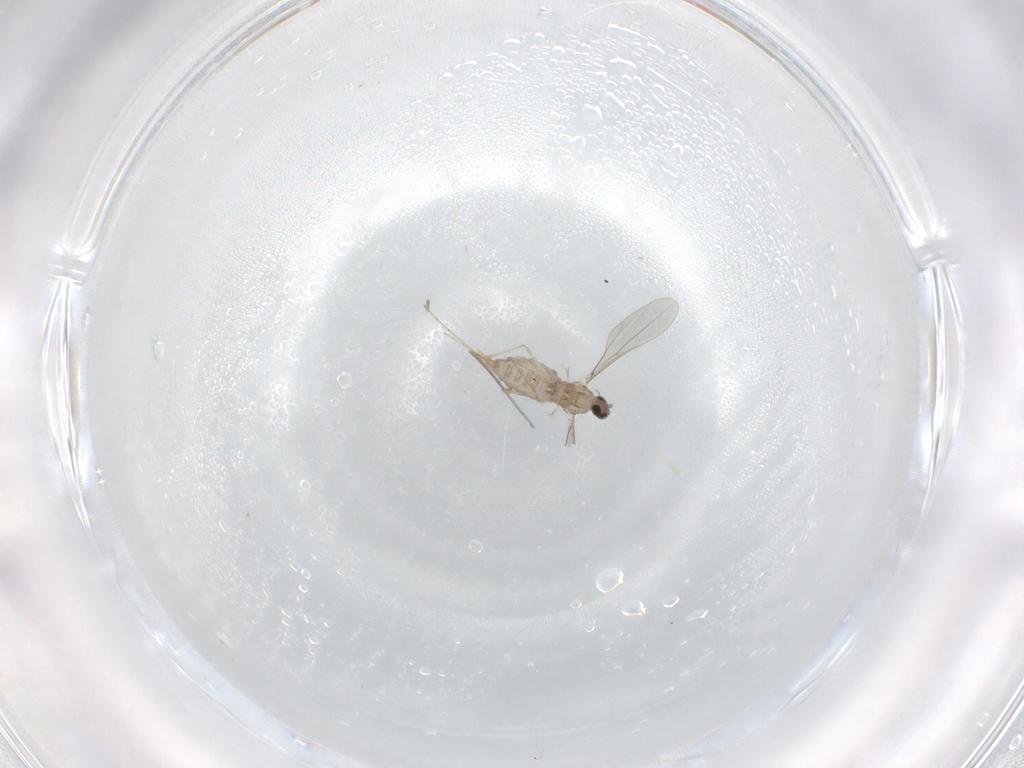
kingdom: Animalia
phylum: Arthropoda
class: Insecta
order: Diptera
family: Cecidomyiidae
